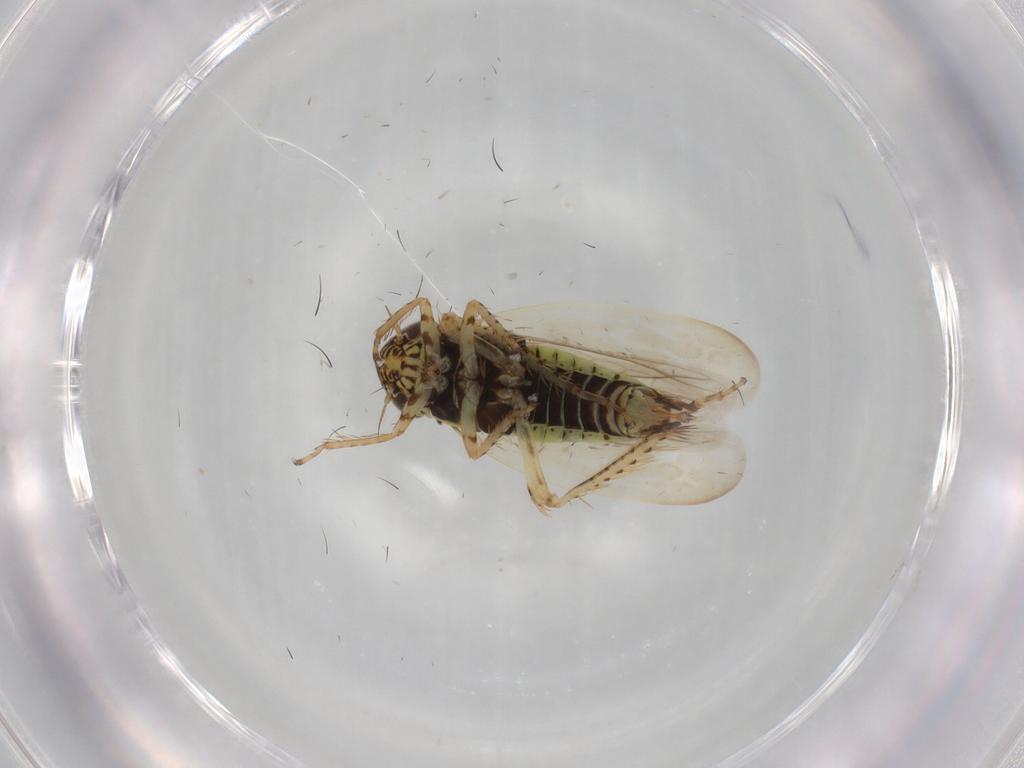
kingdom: Animalia
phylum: Arthropoda
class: Insecta
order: Hemiptera
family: Cicadellidae
